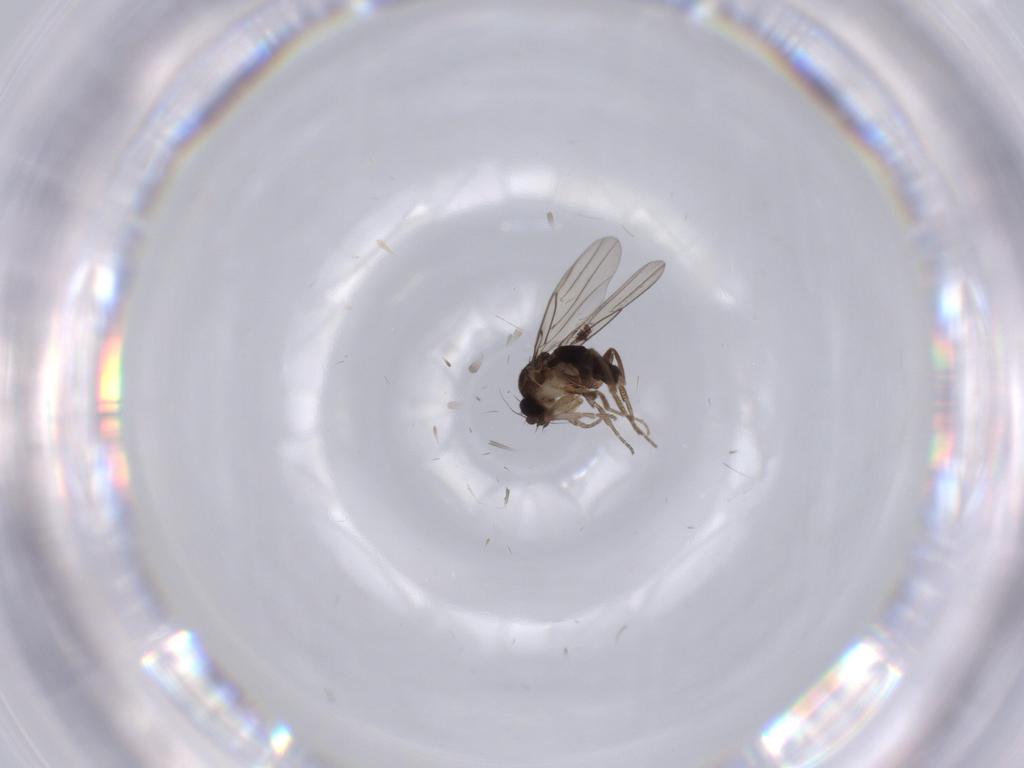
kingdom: Animalia
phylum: Arthropoda
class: Insecta
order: Diptera
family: Phoridae
